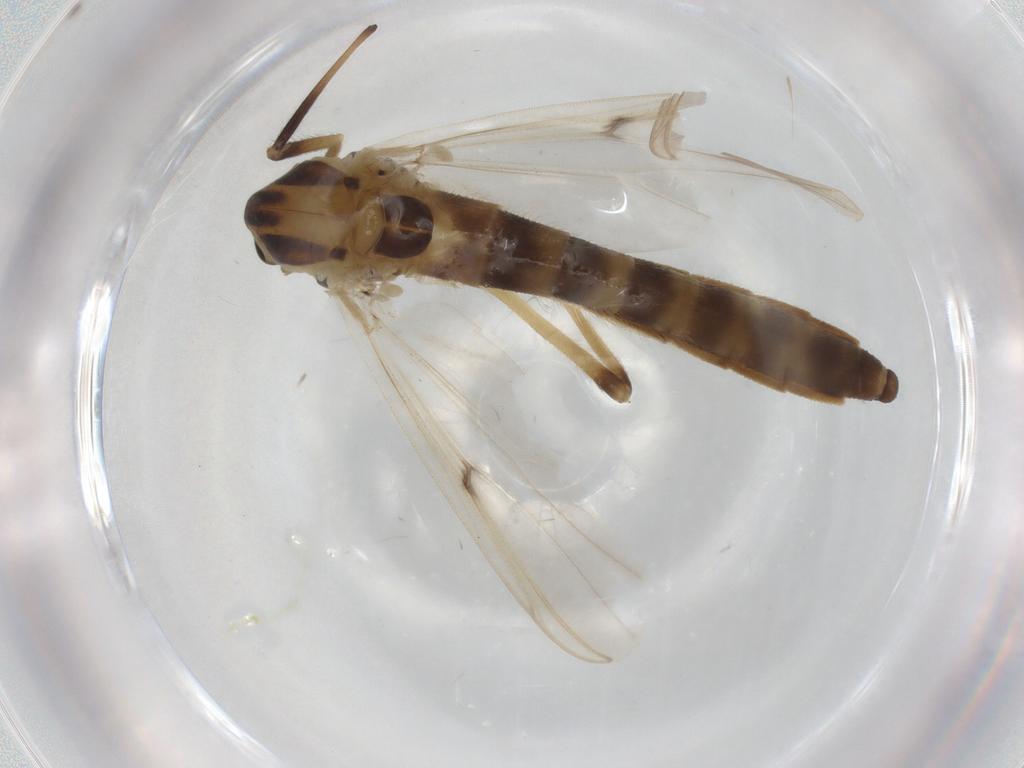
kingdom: Animalia
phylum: Arthropoda
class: Insecta
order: Diptera
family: Chironomidae
